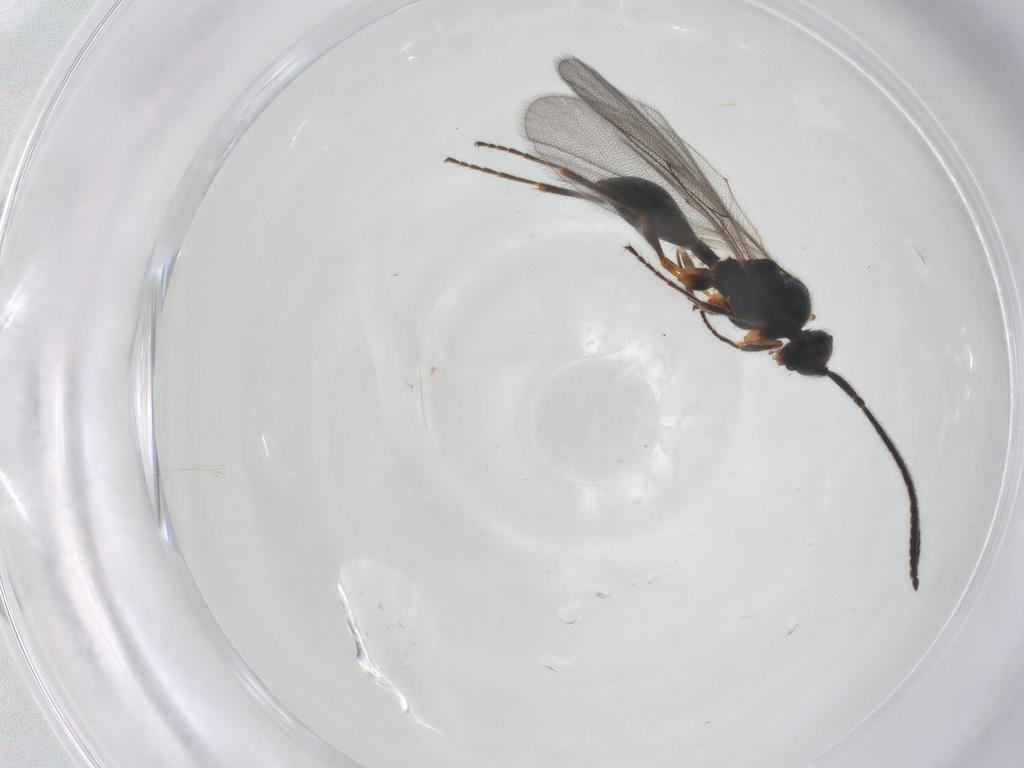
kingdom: Animalia
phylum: Arthropoda
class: Insecta
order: Hymenoptera
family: Diapriidae
